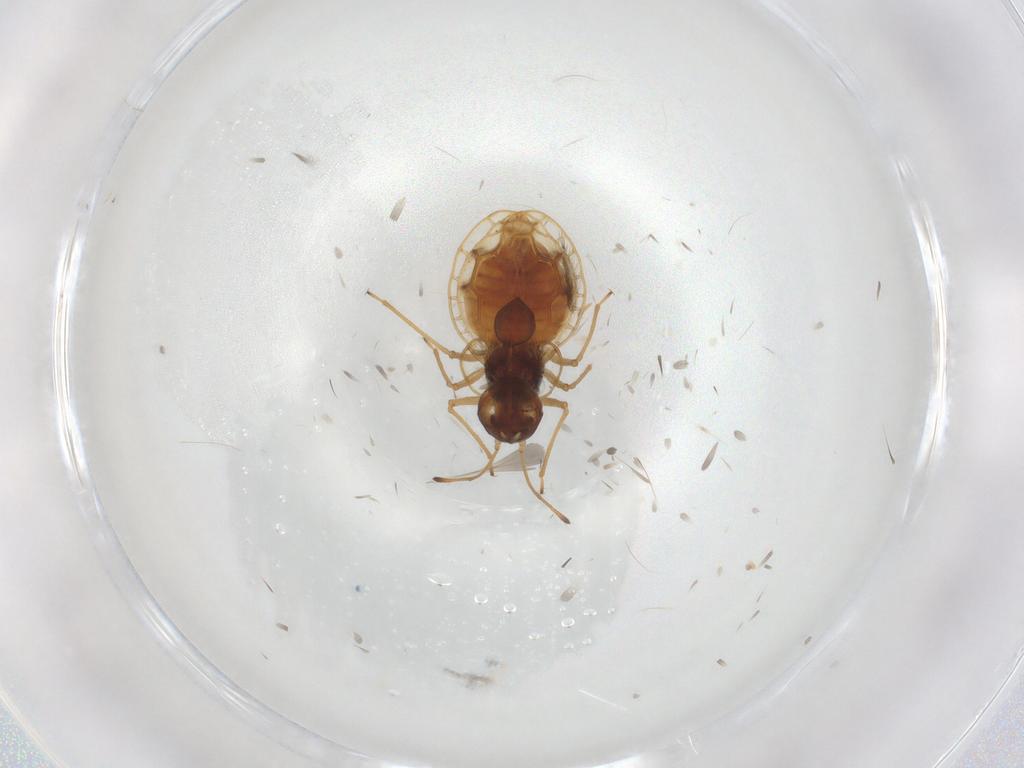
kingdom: Animalia
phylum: Arthropoda
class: Insecta
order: Hemiptera
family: Tingidae
